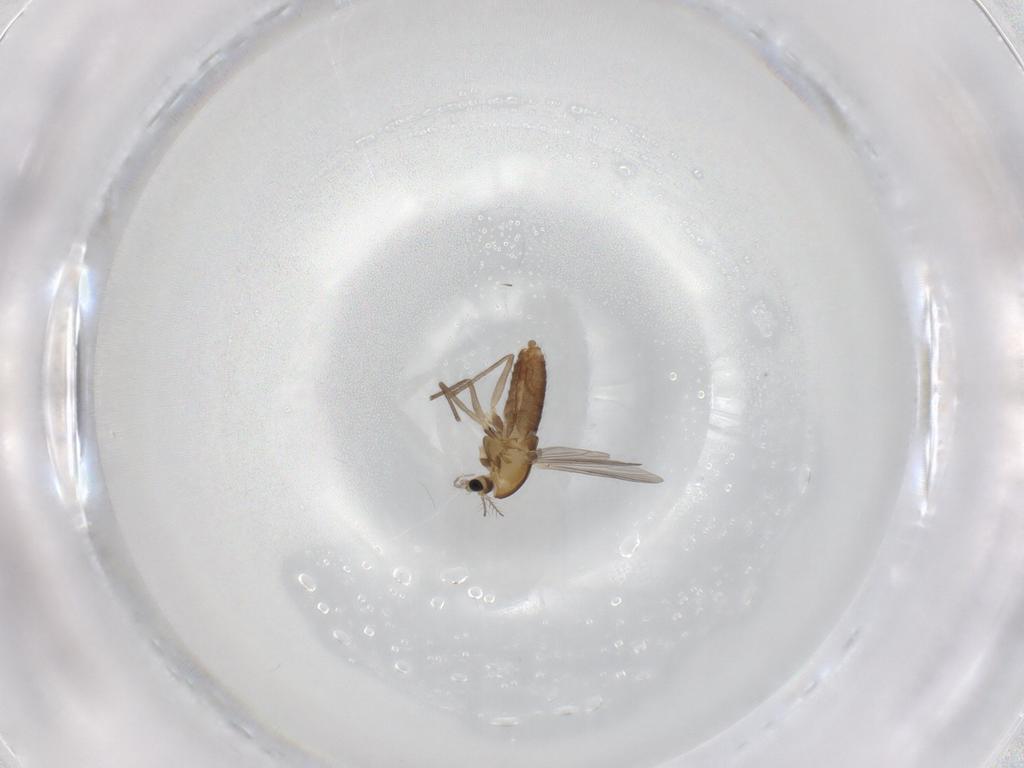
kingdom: Animalia
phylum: Arthropoda
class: Insecta
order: Diptera
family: Chironomidae
